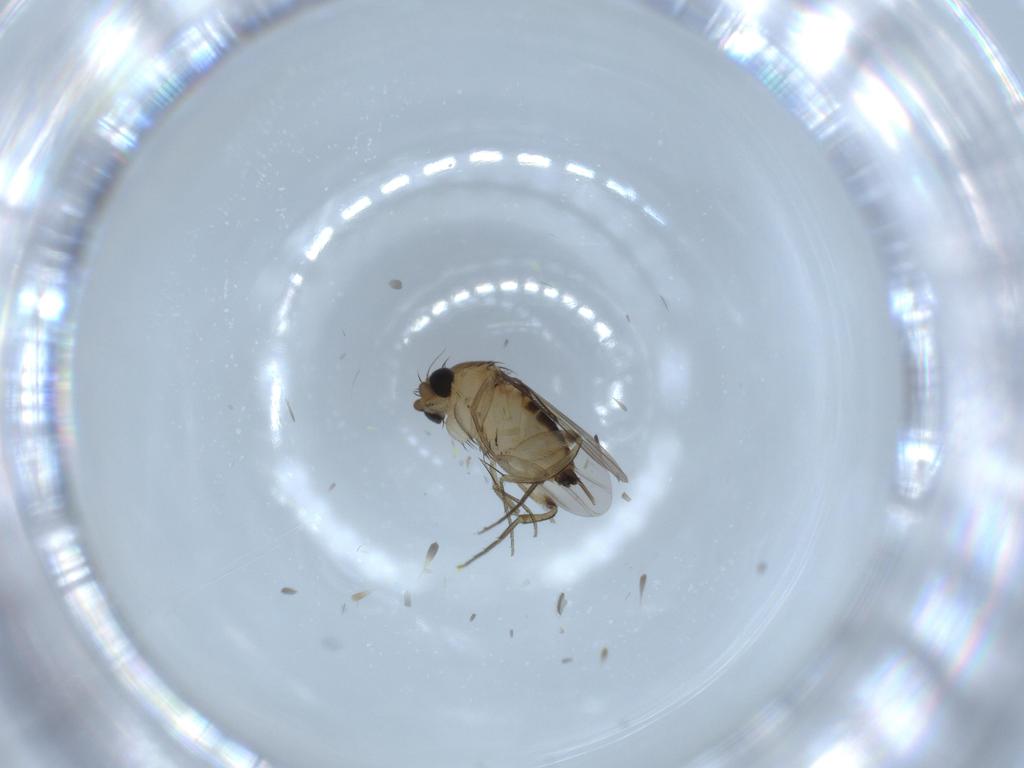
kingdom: Animalia
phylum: Arthropoda
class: Insecta
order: Diptera
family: Phoridae
